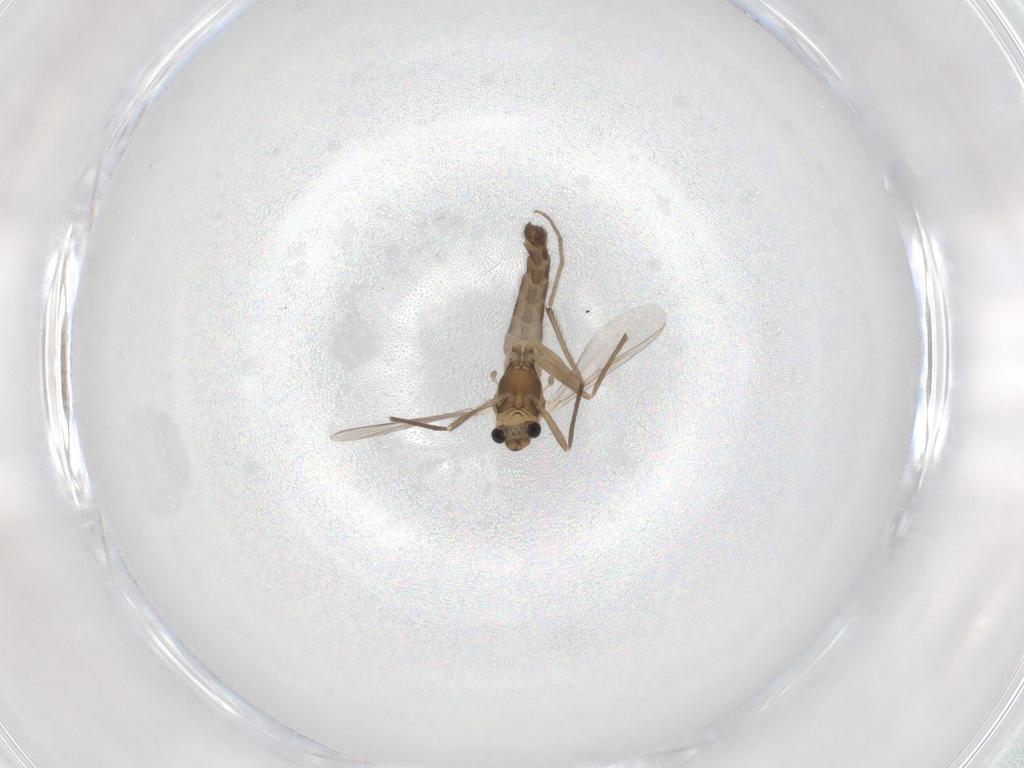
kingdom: Animalia
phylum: Arthropoda
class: Insecta
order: Diptera
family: Chironomidae
